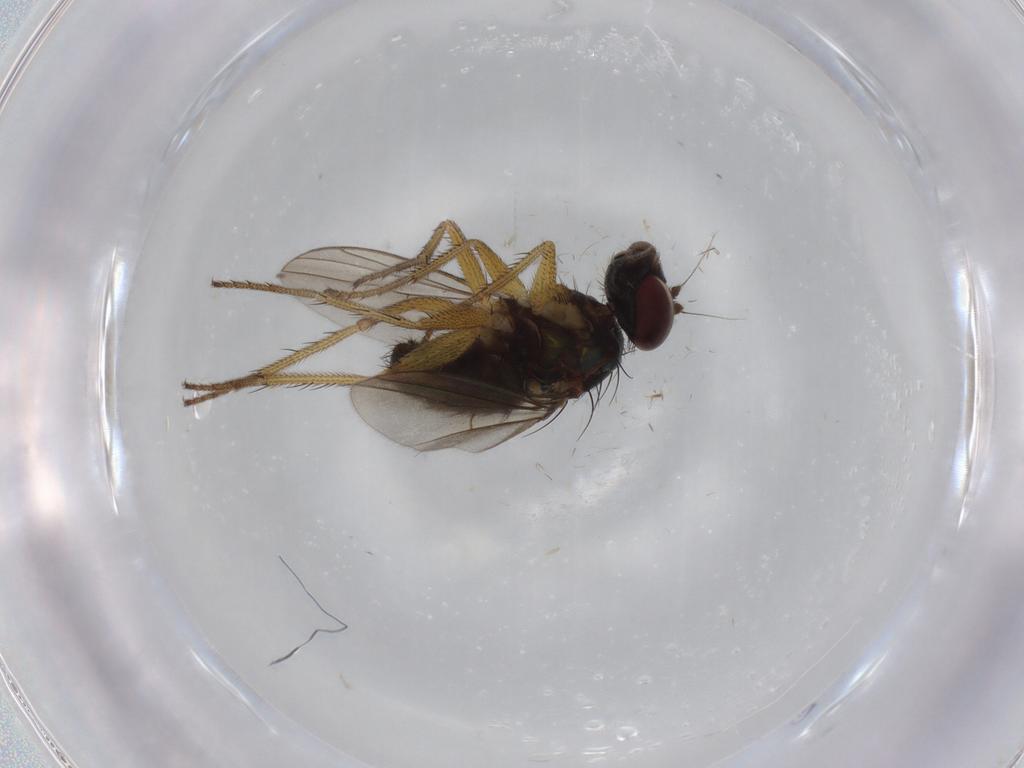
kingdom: Animalia
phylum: Arthropoda
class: Insecta
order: Diptera
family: Dolichopodidae
